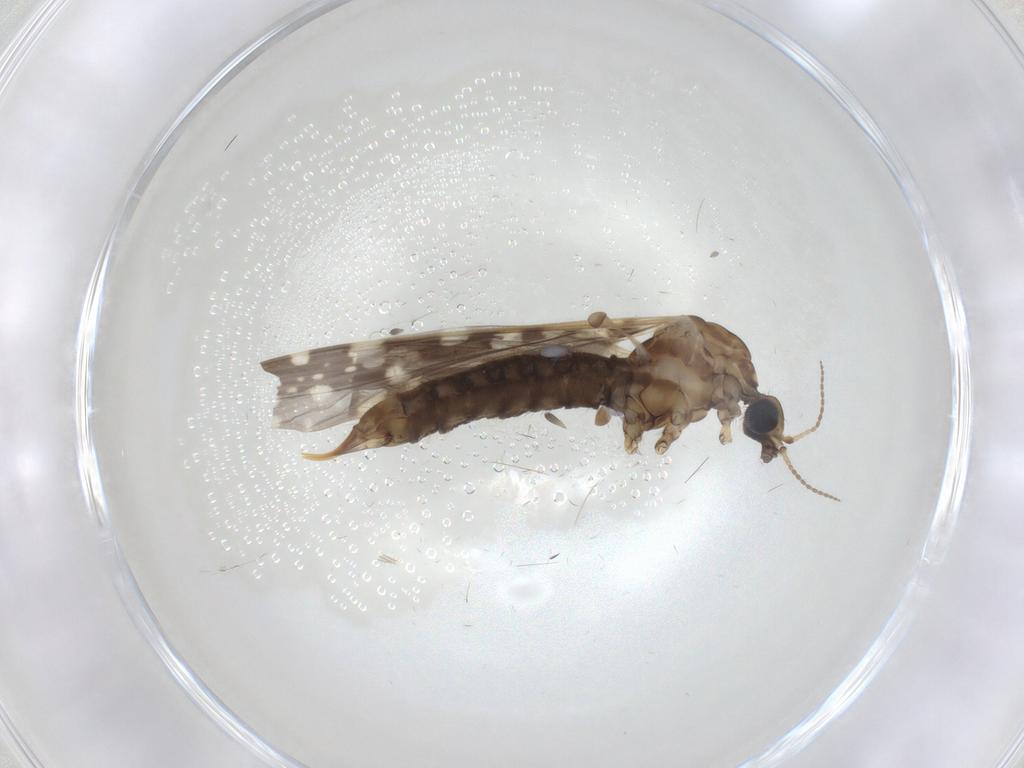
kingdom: Animalia
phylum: Arthropoda
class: Insecta
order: Diptera
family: Limoniidae
